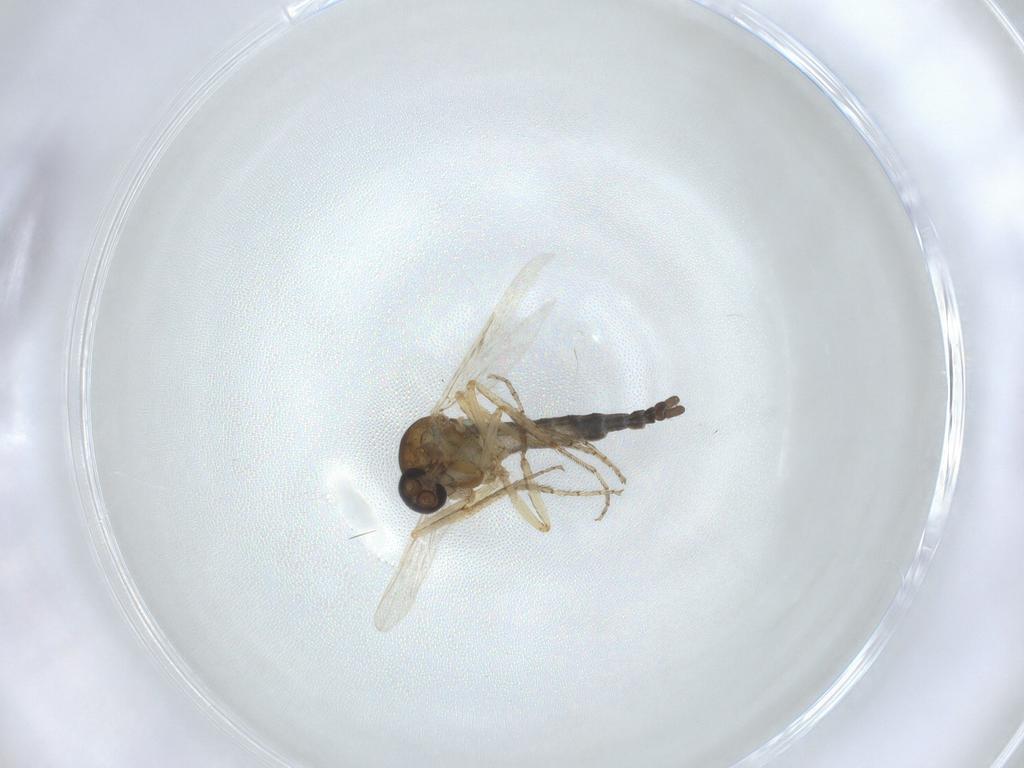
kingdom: Animalia
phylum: Arthropoda
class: Insecta
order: Diptera
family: Ceratopogonidae
